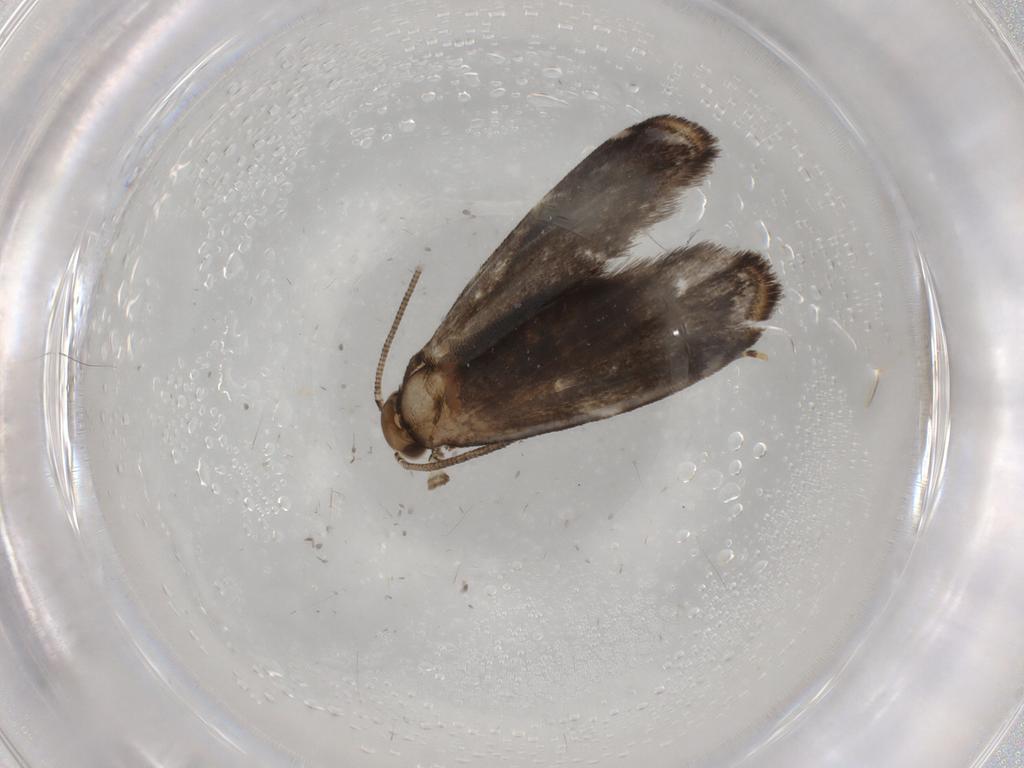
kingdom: Animalia
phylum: Arthropoda
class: Insecta
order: Lepidoptera
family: Dryadaulidae
